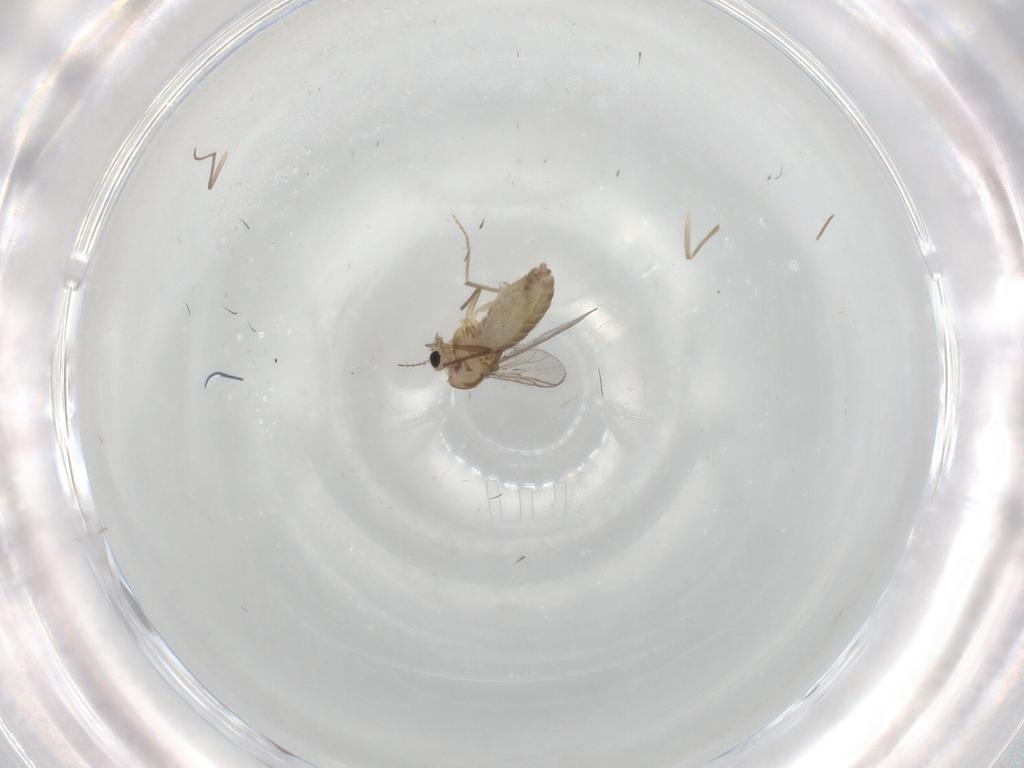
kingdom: Animalia
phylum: Arthropoda
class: Insecta
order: Diptera
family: Chironomidae
